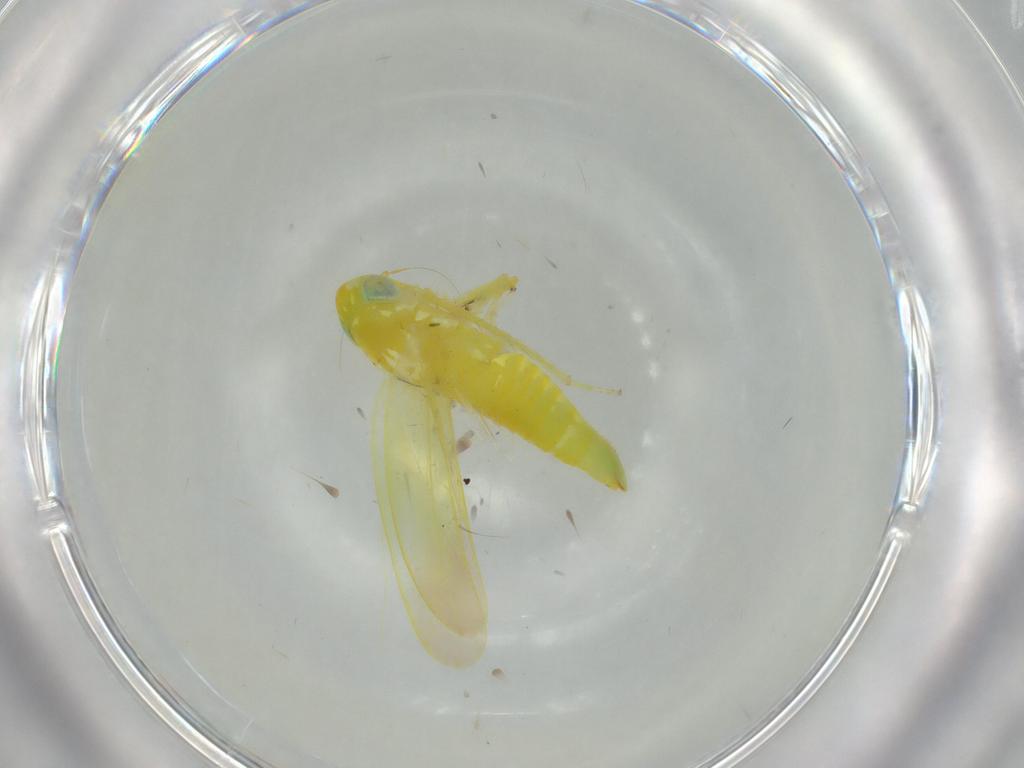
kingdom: Animalia
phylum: Arthropoda
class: Insecta
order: Hemiptera
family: Cicadellidae
